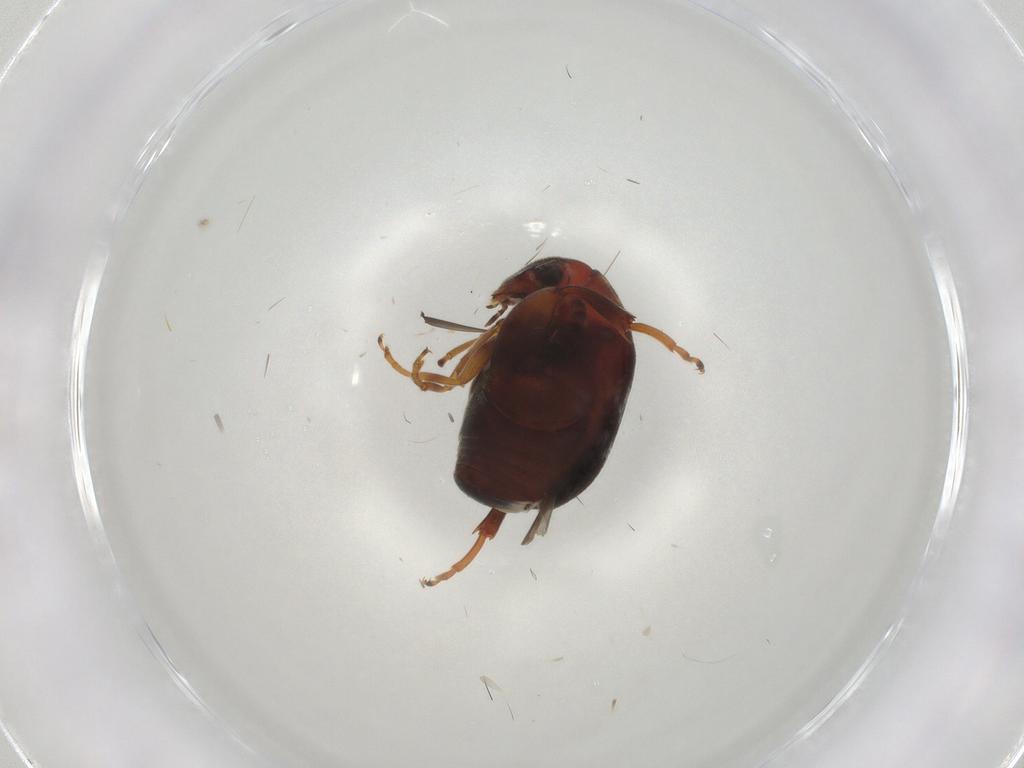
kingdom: Animalia
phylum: Arthropoda
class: Insecta
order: Coleoptera
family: Chrysomelidae
